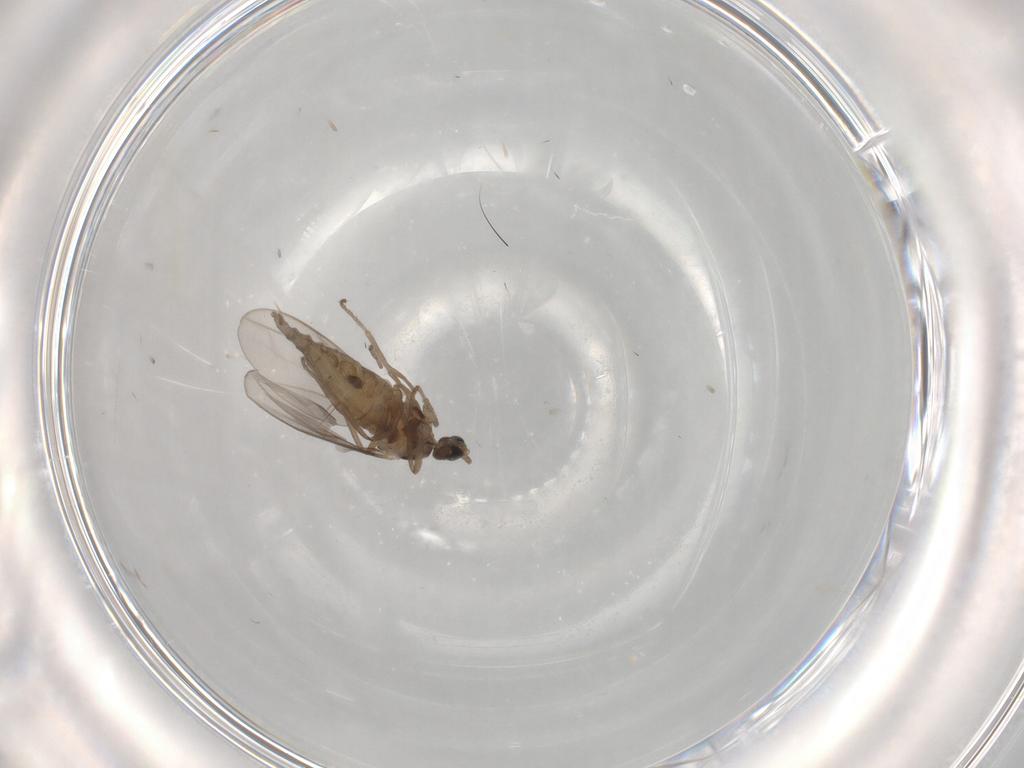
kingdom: Animalia
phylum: Arthropoda
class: Insecta
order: Diptera
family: Cecidomyiidae
